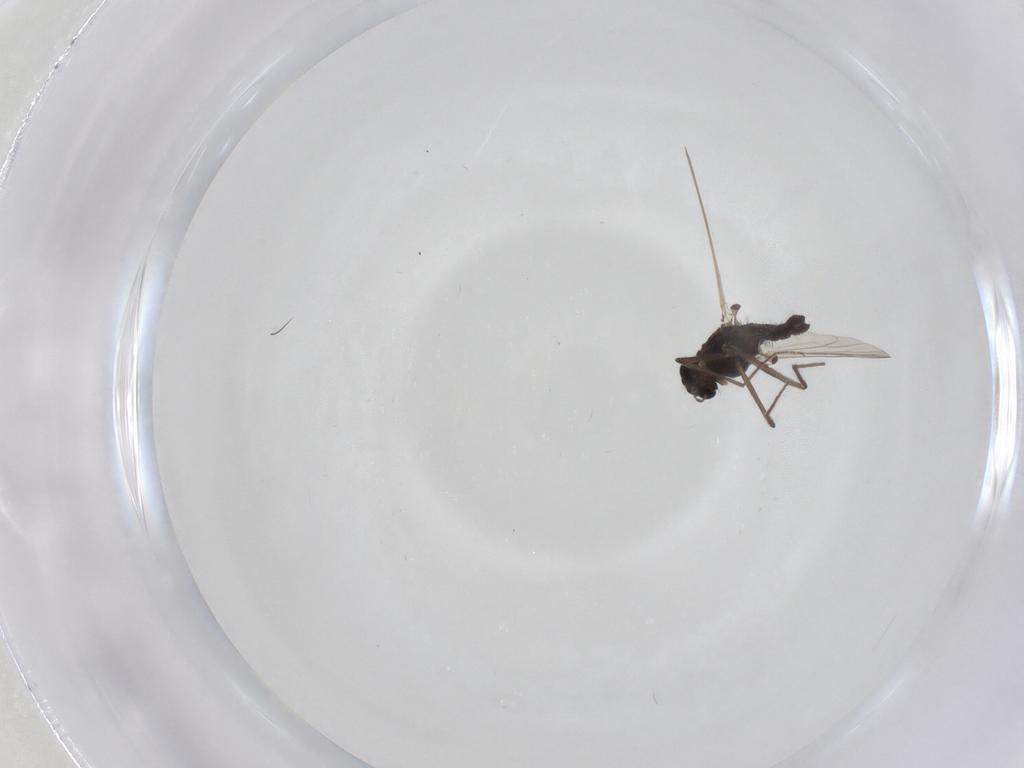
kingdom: Animalia
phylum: Arthropoda
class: Insecta
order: Diptera
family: Chironomidae
